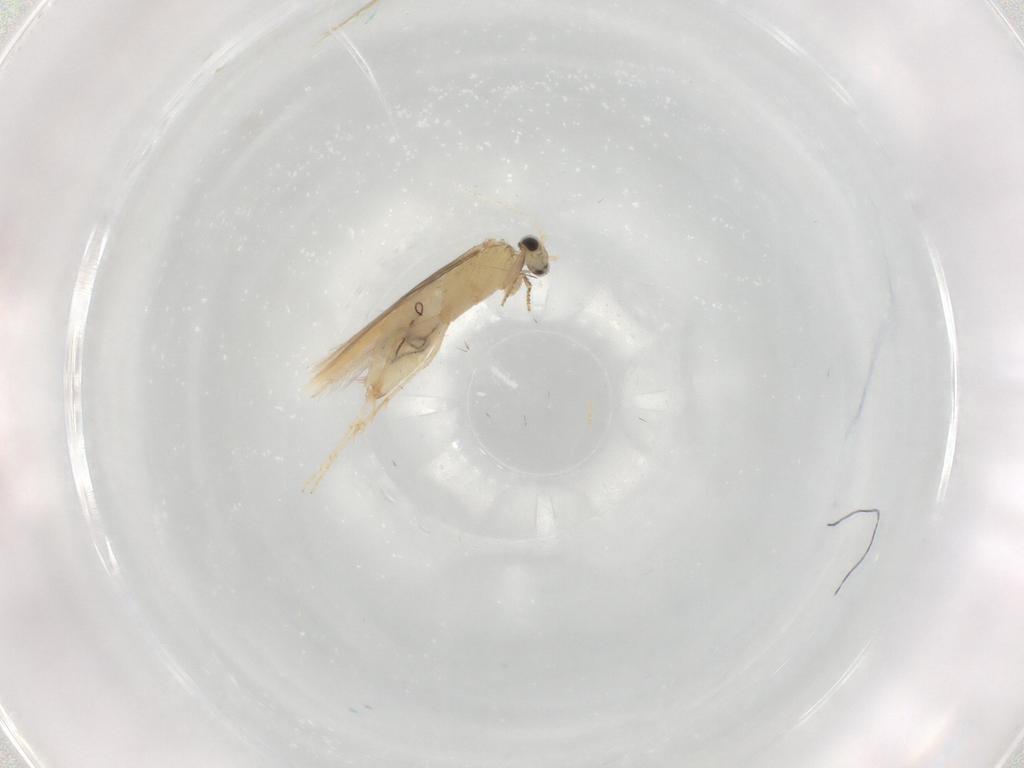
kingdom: Animalia
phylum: Arthropoda
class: Insecta
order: Trichoptera
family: Hydroptilidae
